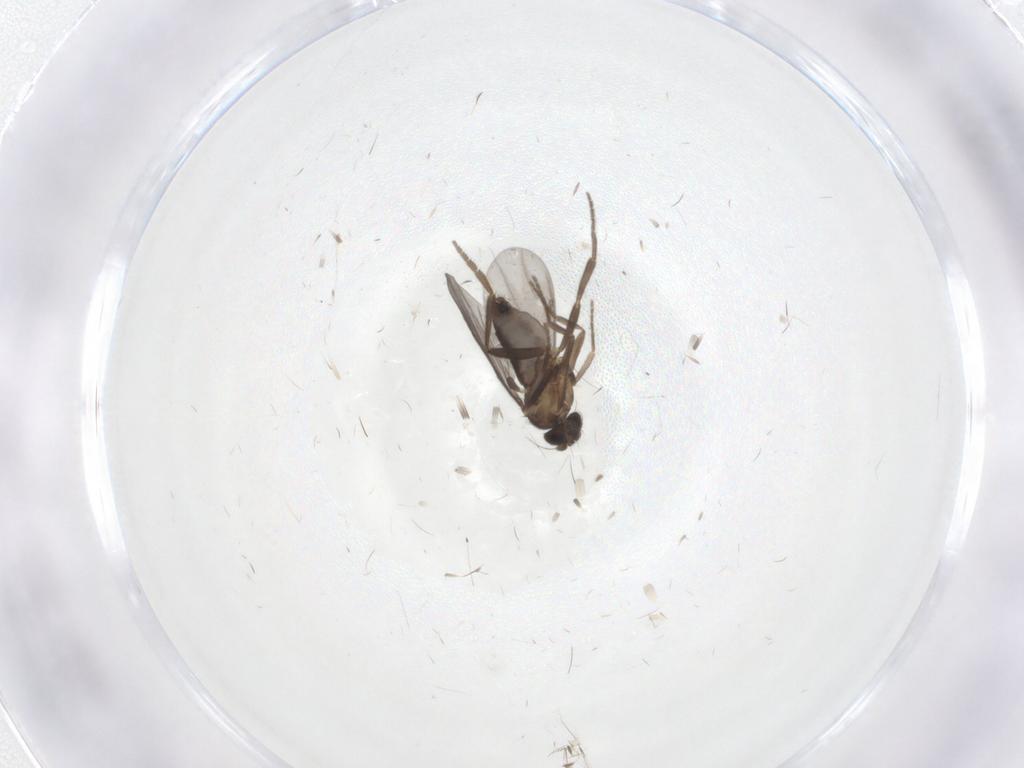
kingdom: Animalia
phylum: Arthropoda
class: Insecta
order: Diptera
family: Phoridae
